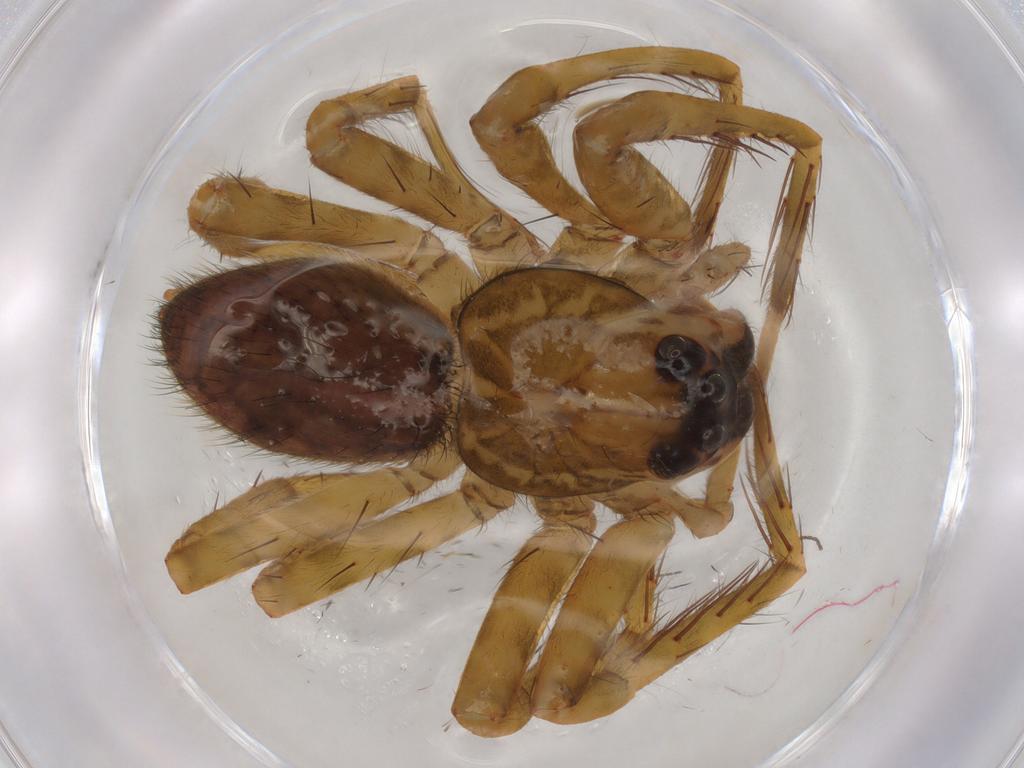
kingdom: Animalia
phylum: Arthropoda
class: Arachnida
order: Araneae
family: Ctenidae
